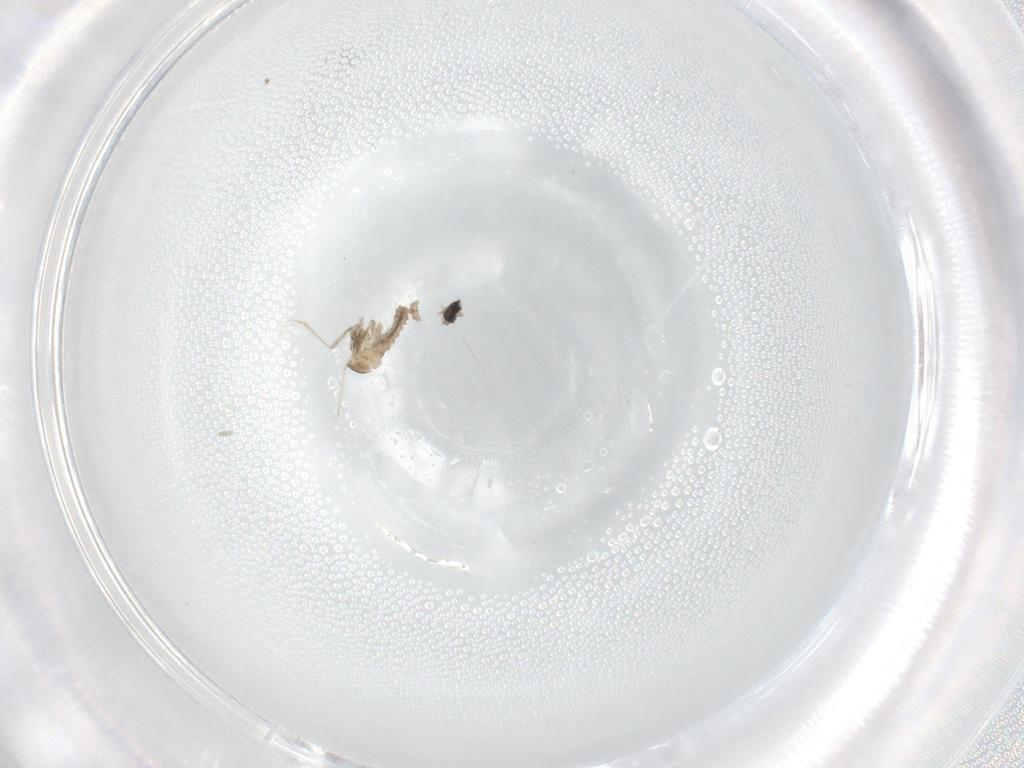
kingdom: Animalia
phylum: Arthropoda
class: Insecta
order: Diptera
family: Cecidomyiidae
